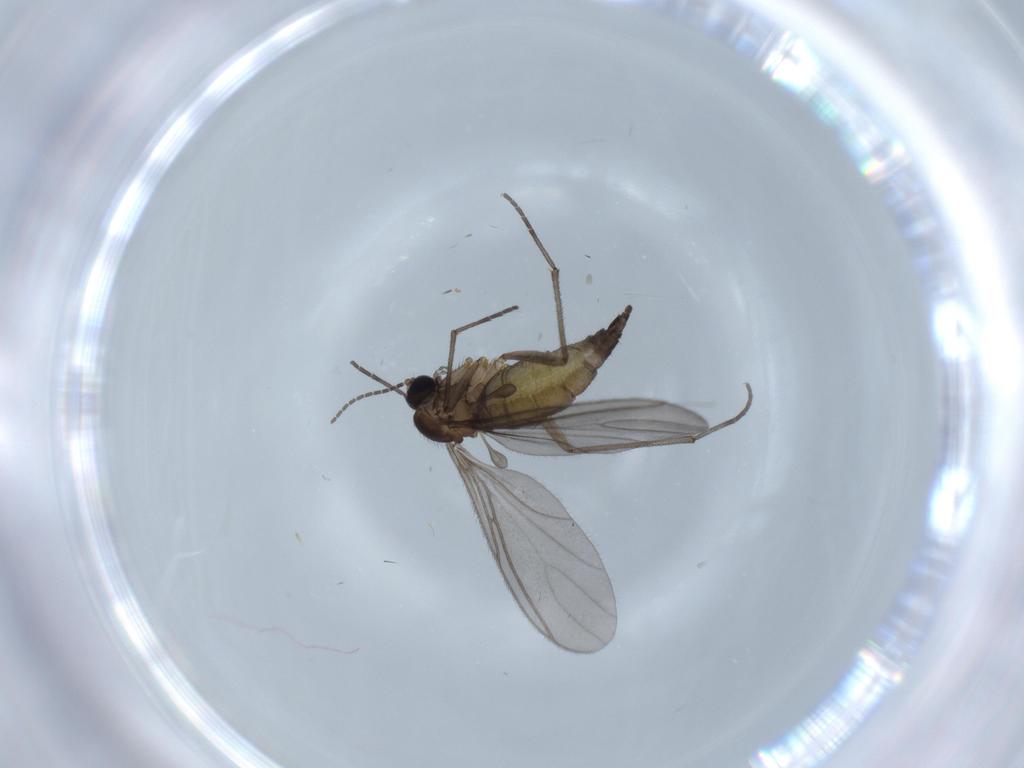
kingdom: Animalia
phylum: Arthropoda
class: Insecta
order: Diptera
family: Sciaridae
